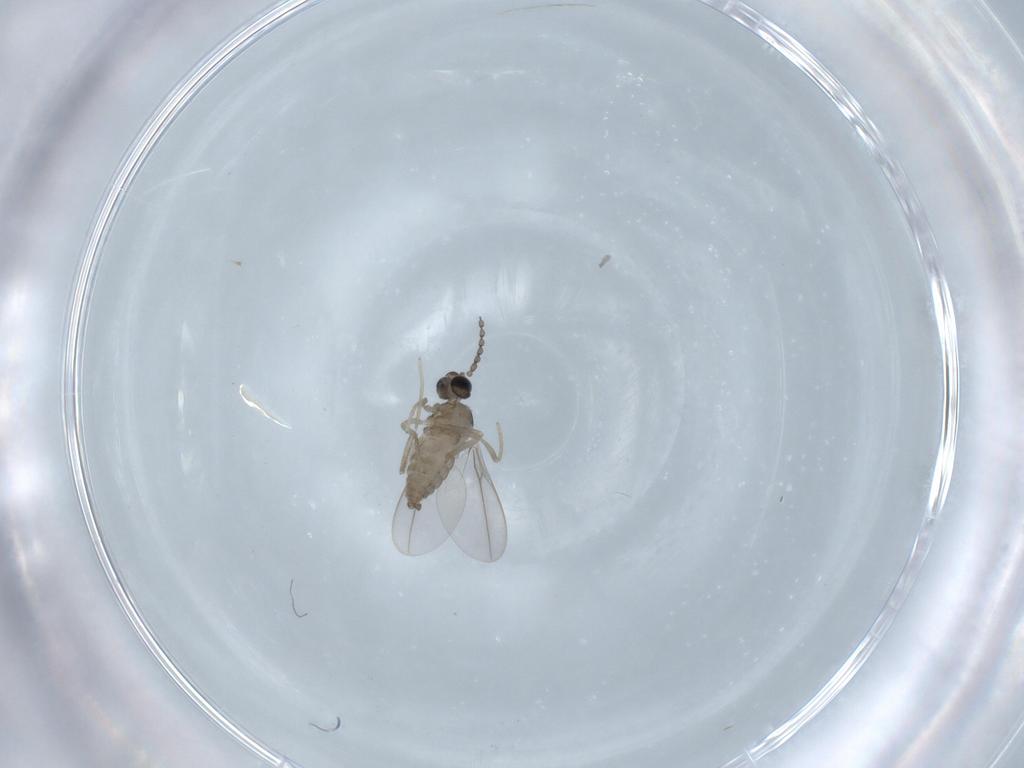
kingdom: Animalia
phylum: Arthropoda
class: Insecta
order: Diptera
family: Cecidomyiidae
